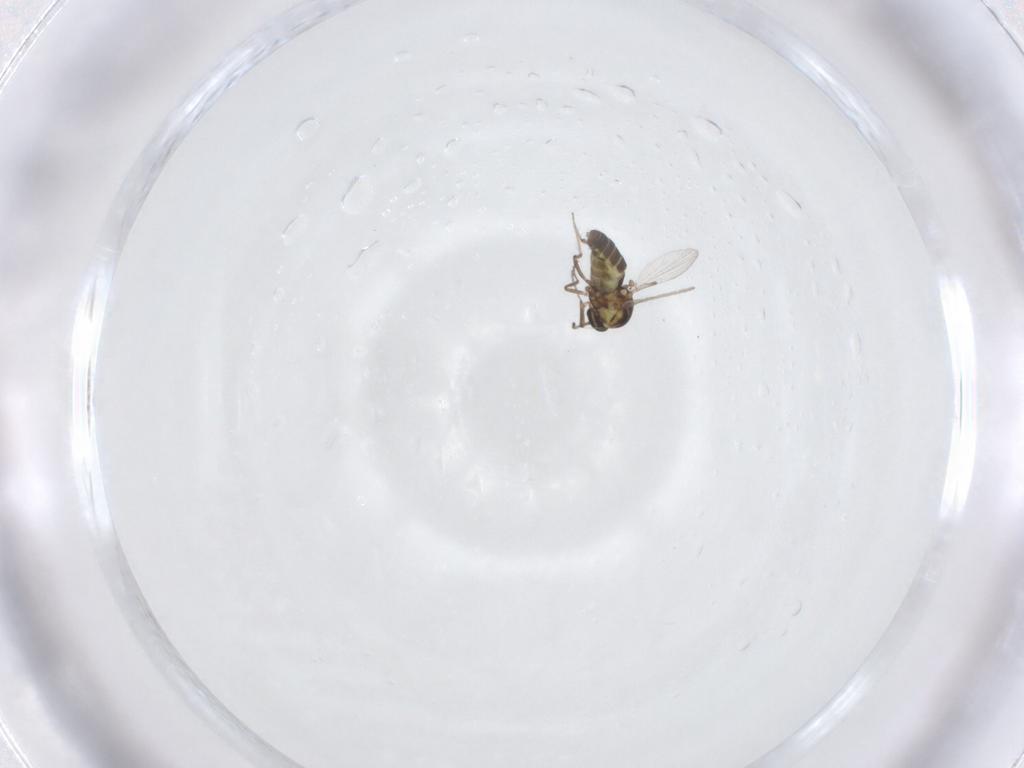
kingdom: Animalia
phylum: Arthropoda
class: Insecta
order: Diptera
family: Ceratopogonidae
